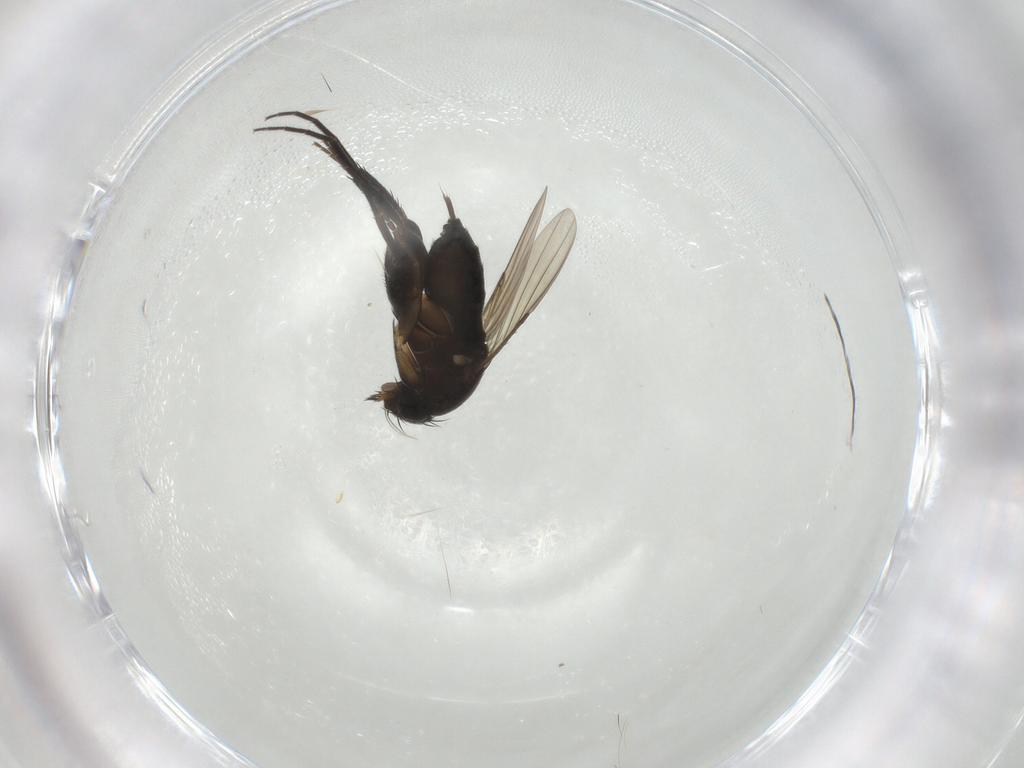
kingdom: Animalia
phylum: Arthropoda
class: Insecta
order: Diptera
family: Phoridae
